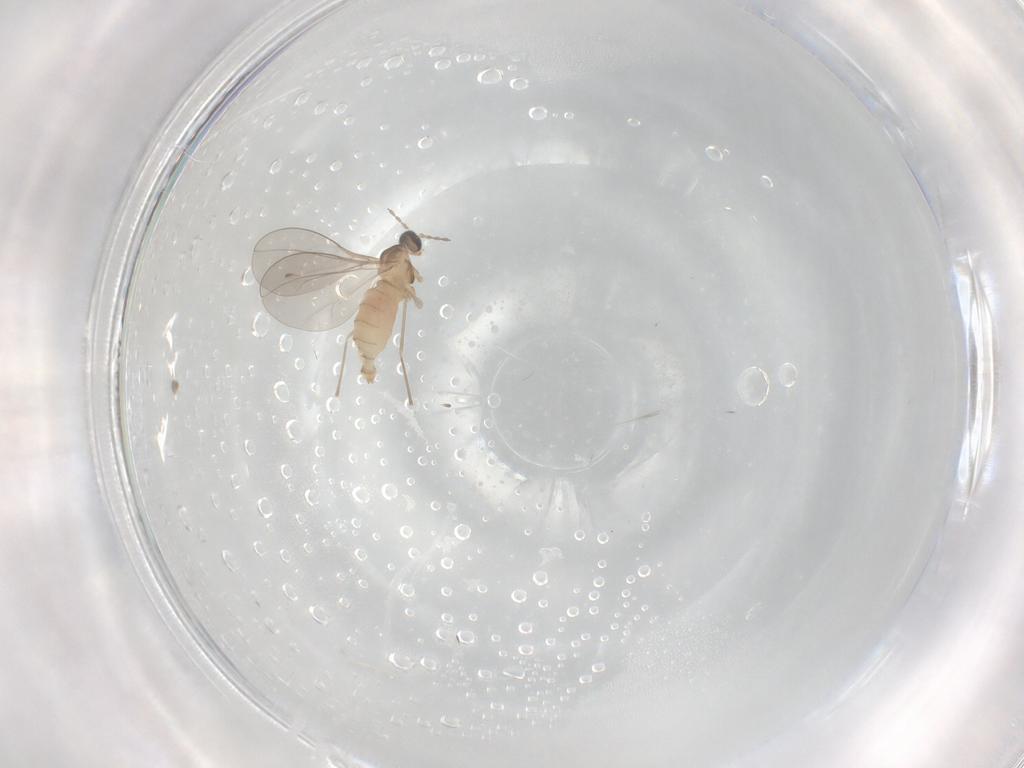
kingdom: Animalia
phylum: Arthropoda
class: Insecta
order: Diptera
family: Cecidomyiidae
